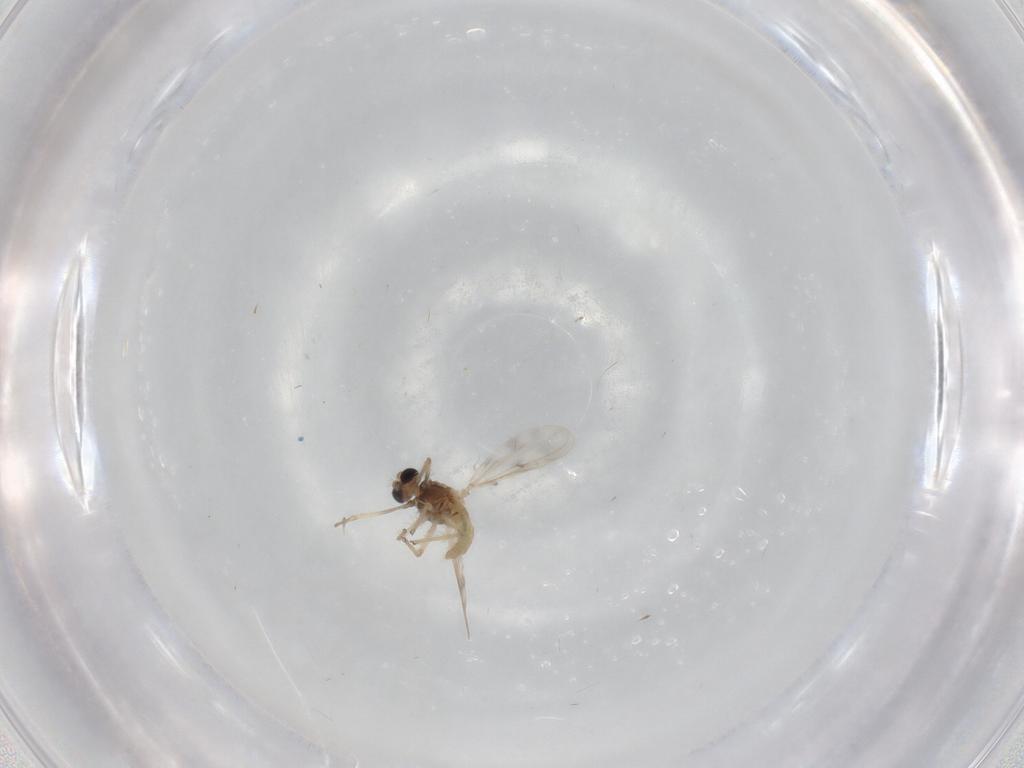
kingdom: Animalia
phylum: Arthropoda
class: Insecta
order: Diptera
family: Chironomidae
